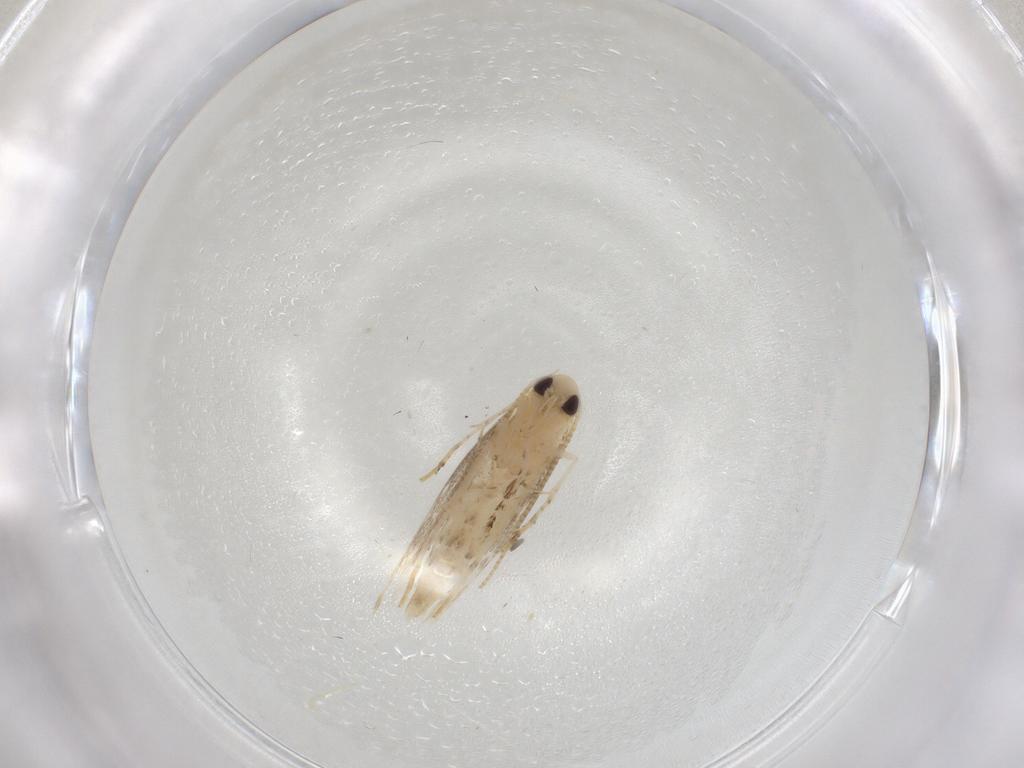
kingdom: Animalia
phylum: Arthropoda
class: Insecta
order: Lepidoptera
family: Gracillariidae
